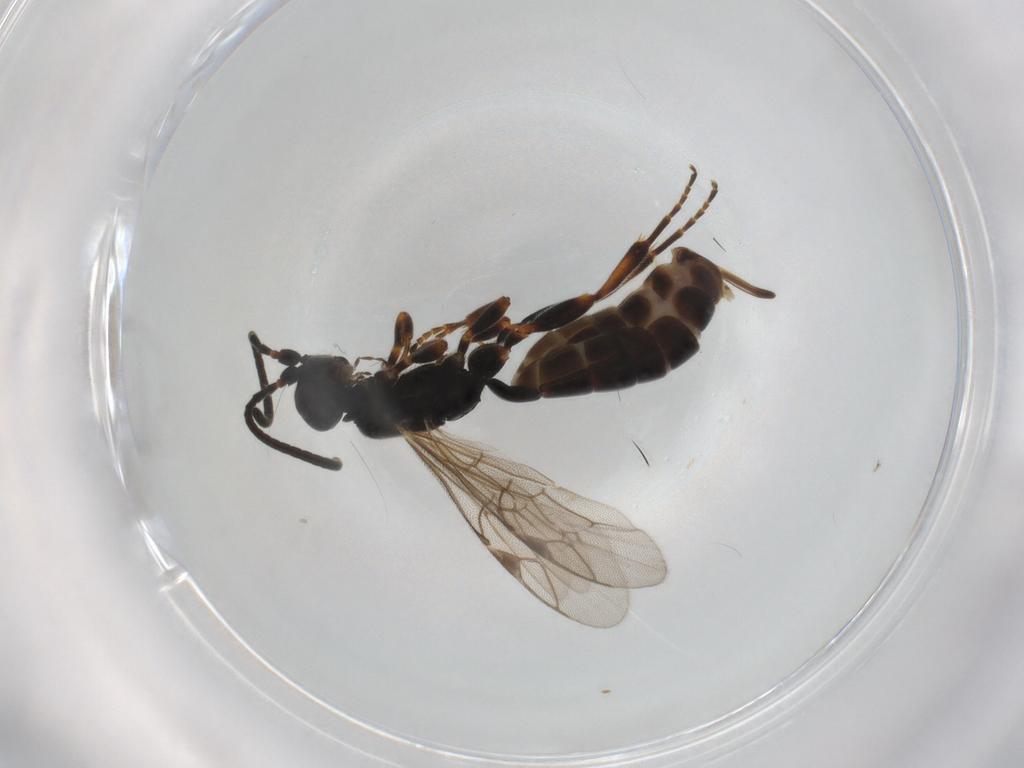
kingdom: Animalia
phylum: Arthropoda
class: Insecta
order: Hymenoptera
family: Ichneumonidae
